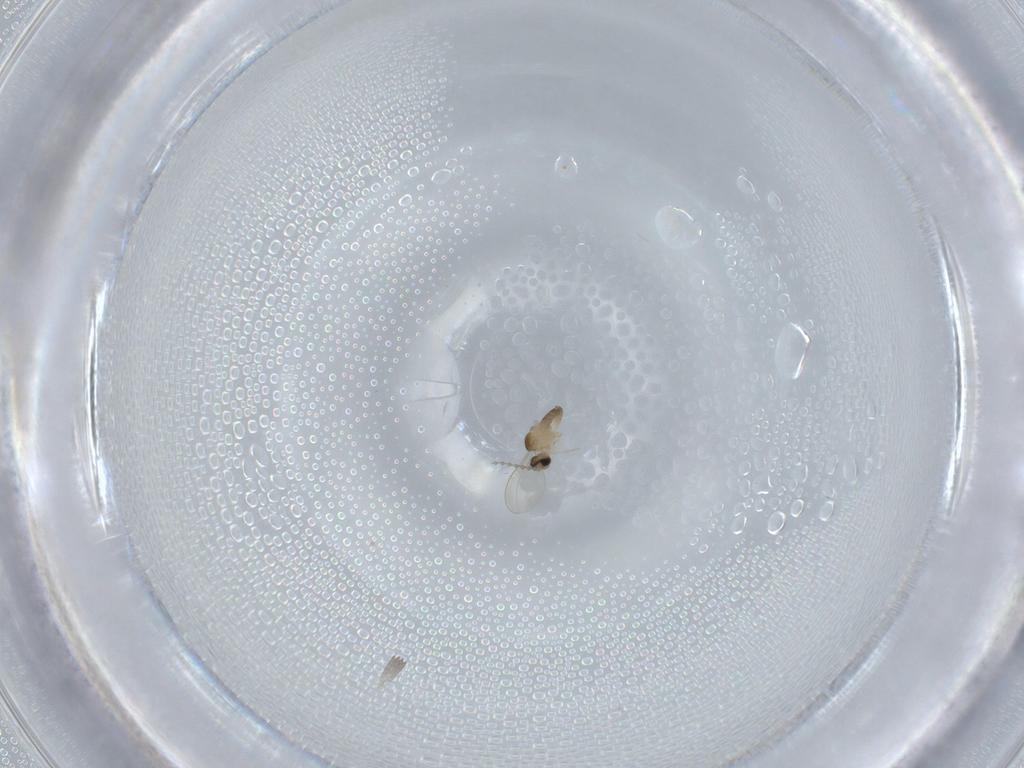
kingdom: Animalia
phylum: Arthropoda
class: Insecta
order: Diptera
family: Cecidomyiidae
